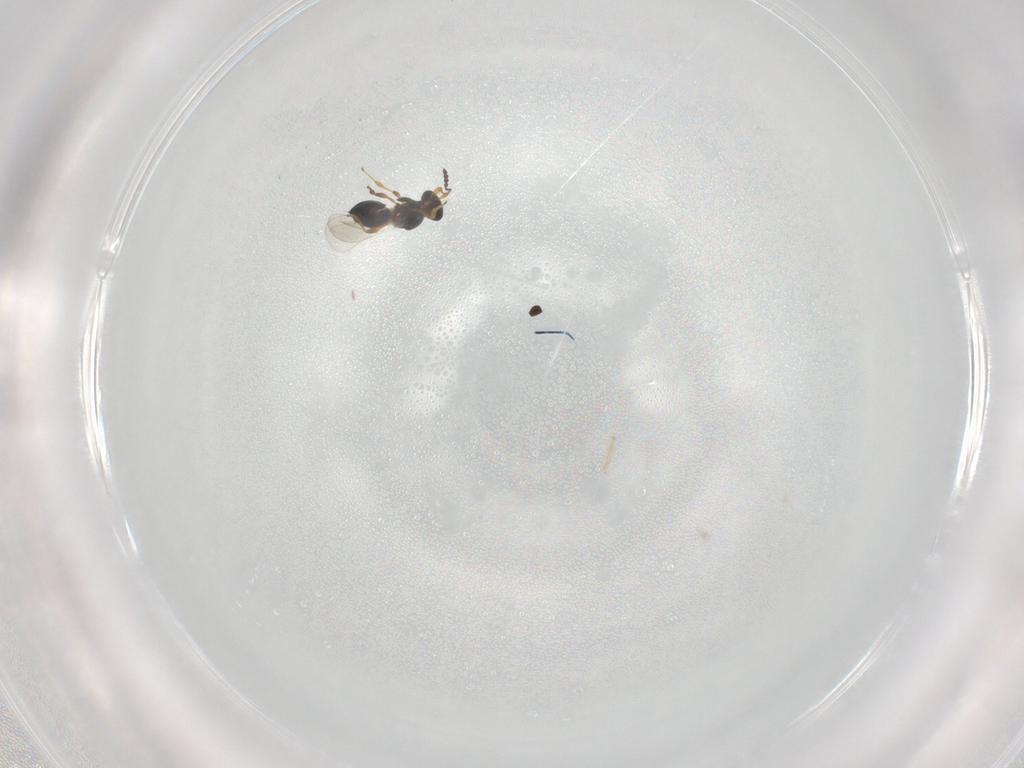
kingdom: Animalia
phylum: Arthropoda
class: Insecta
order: Hymenoptera
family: Platygastridae
